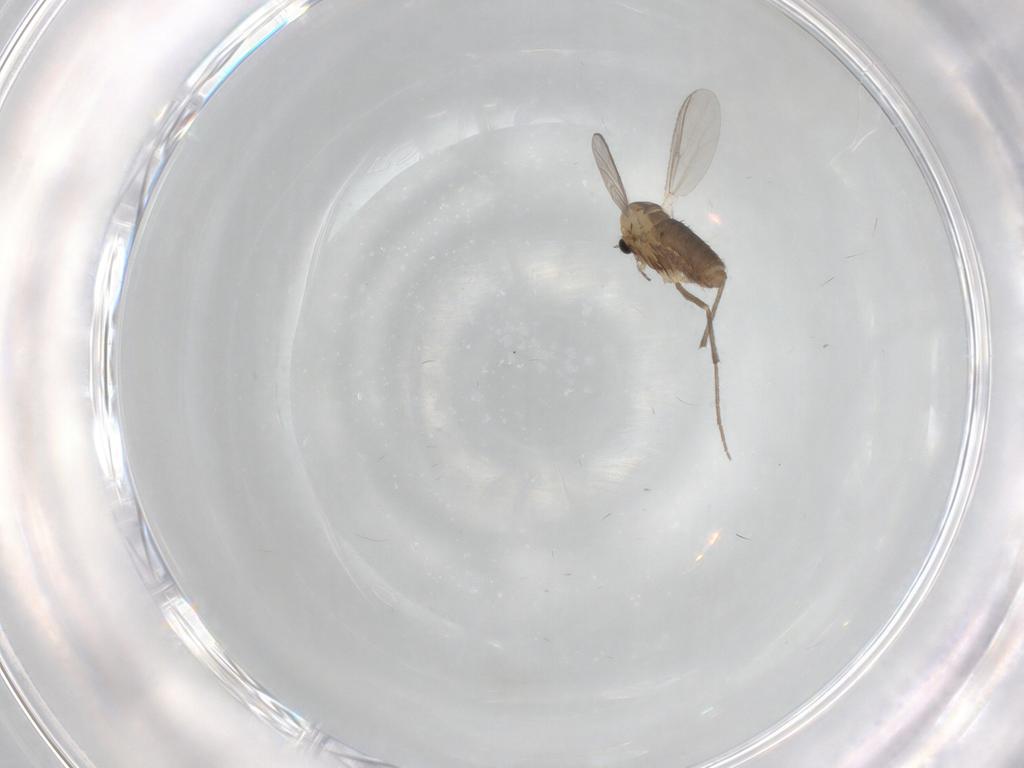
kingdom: Animalia
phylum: Arthropoda
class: Insecta
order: Diptera
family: Chironomidae
